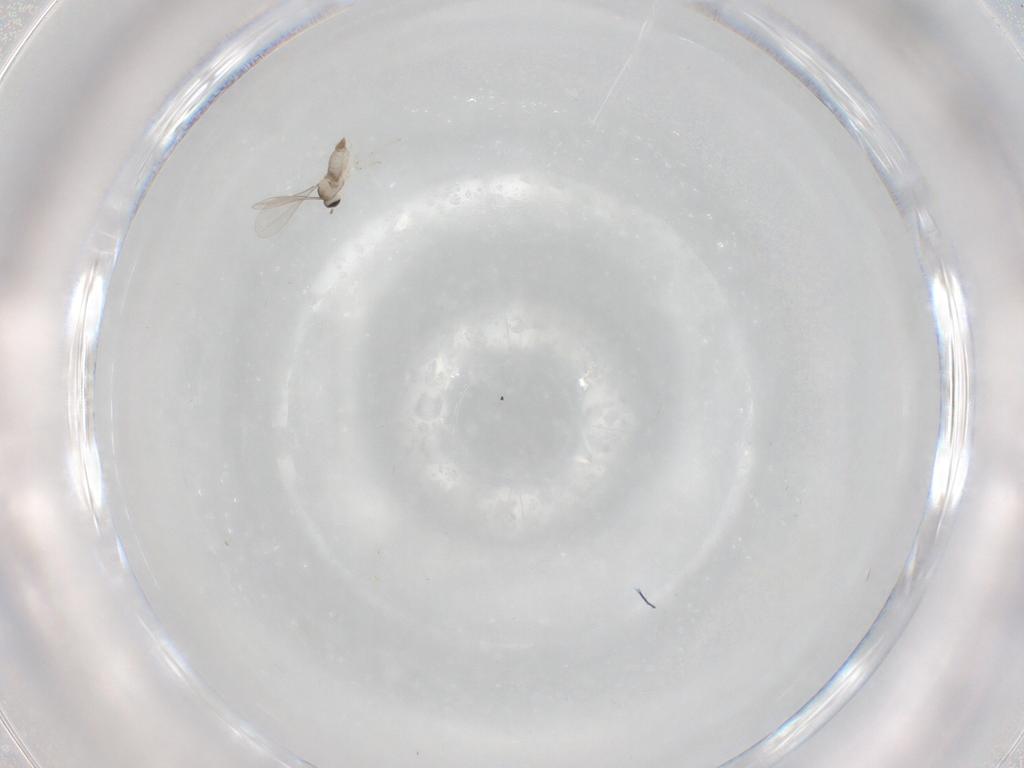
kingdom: Animalia
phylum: Arthropoda
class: Insecta
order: Diptera
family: Cecidomyiidae
